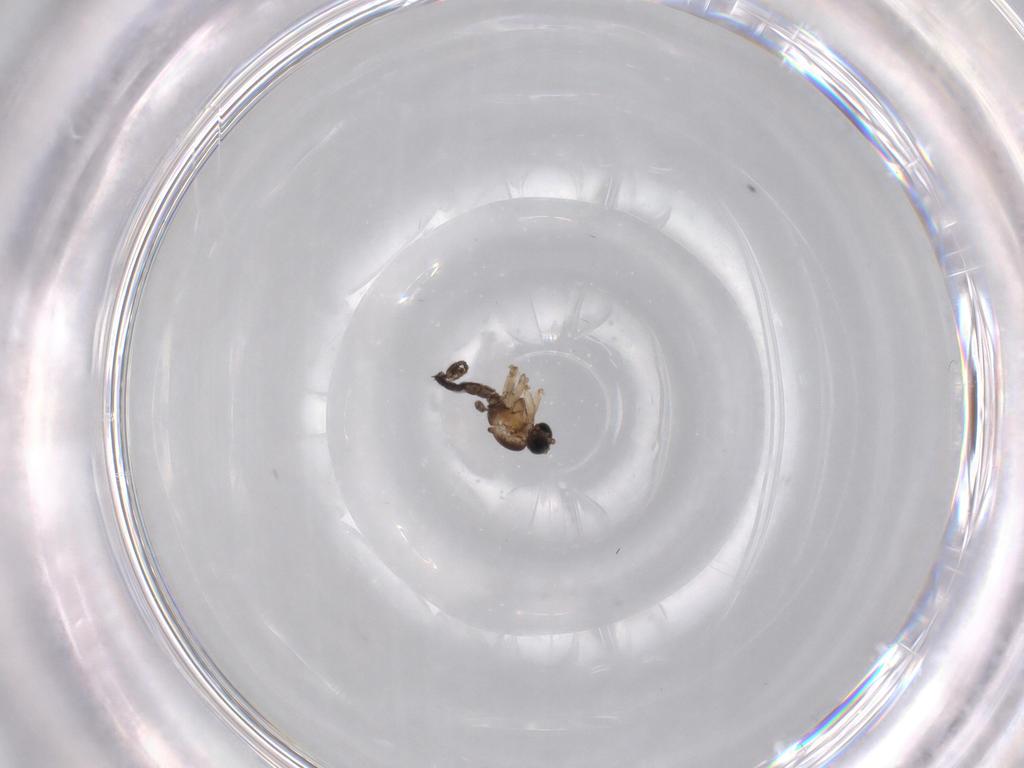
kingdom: Animalia
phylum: Arthropoda
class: Insecta
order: Diptera
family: Sciaridae
